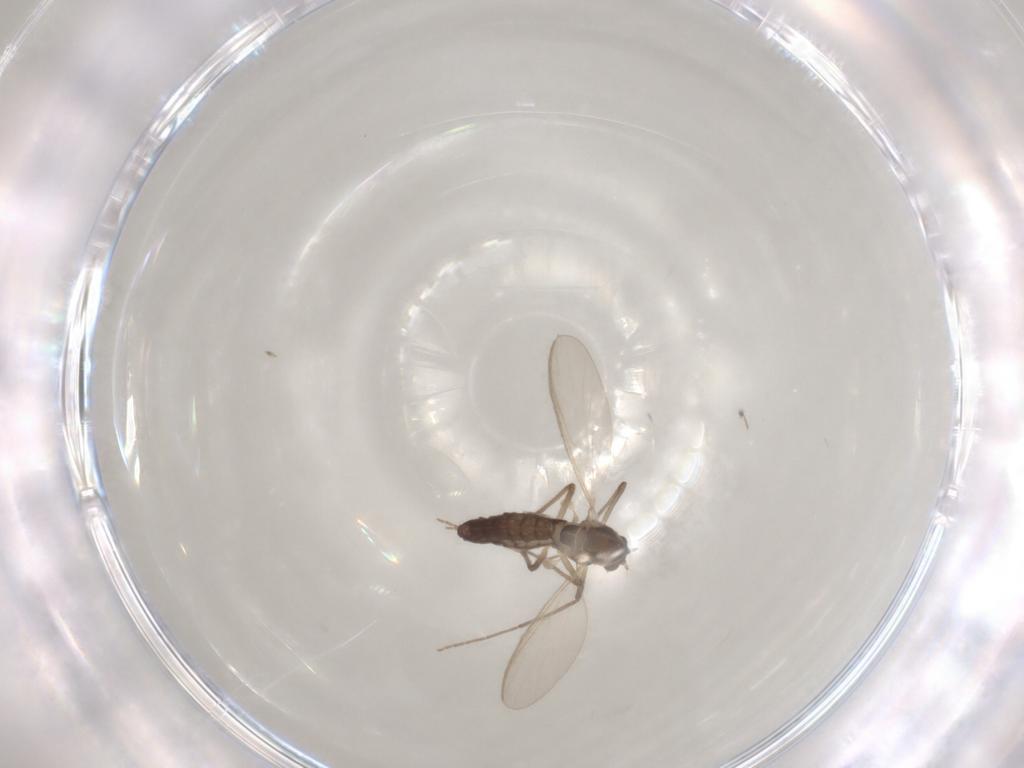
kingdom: Animalia
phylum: Arthropoda
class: Insecta
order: Diptera
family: Chironomidae
